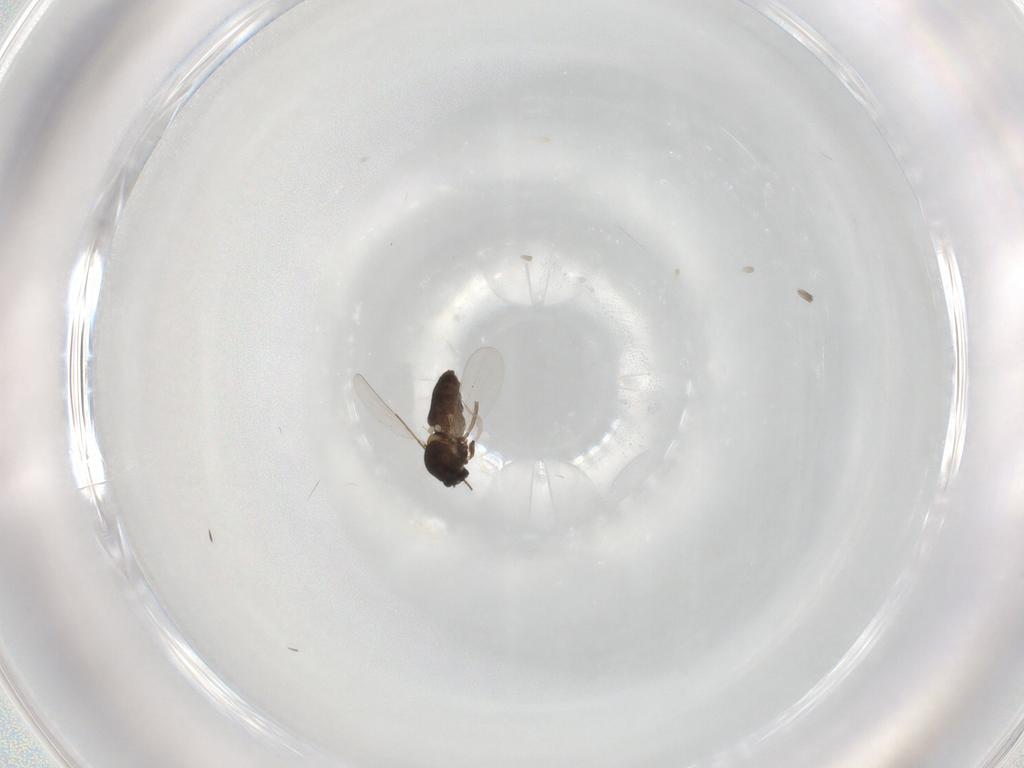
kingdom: Animalia
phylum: Arthropoda
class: Insecta
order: Diptera
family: Ceratopogonidae
